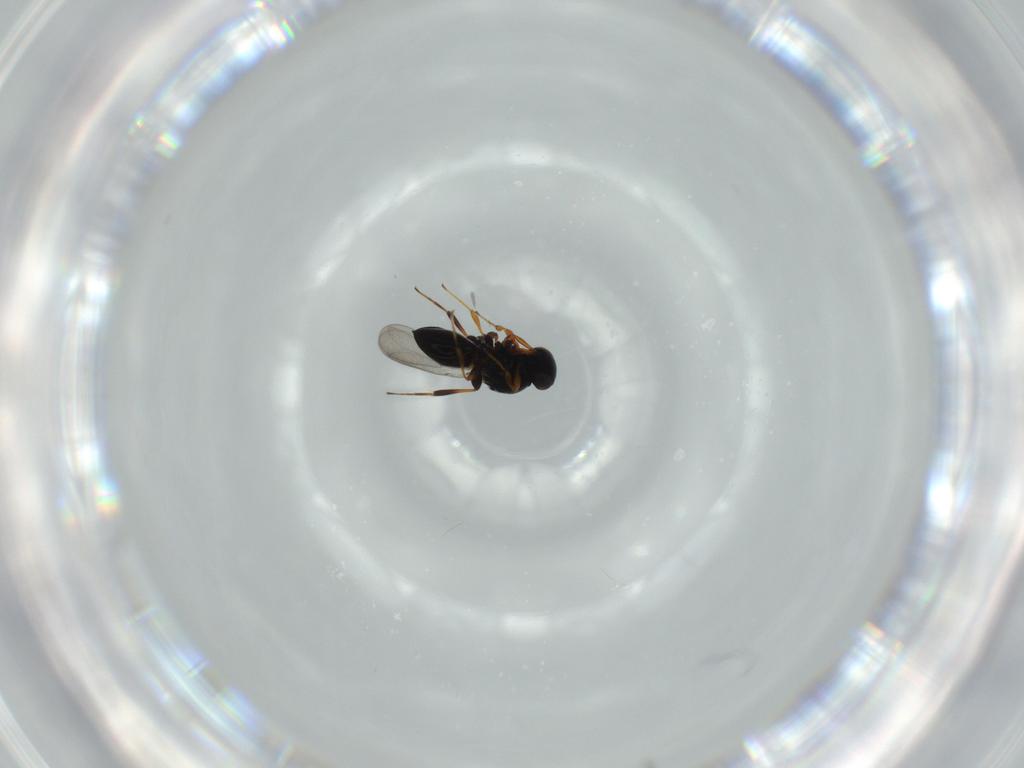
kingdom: Animalia
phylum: Arthropoda
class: Insecta
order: Hymenoptera
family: Platygastridae
